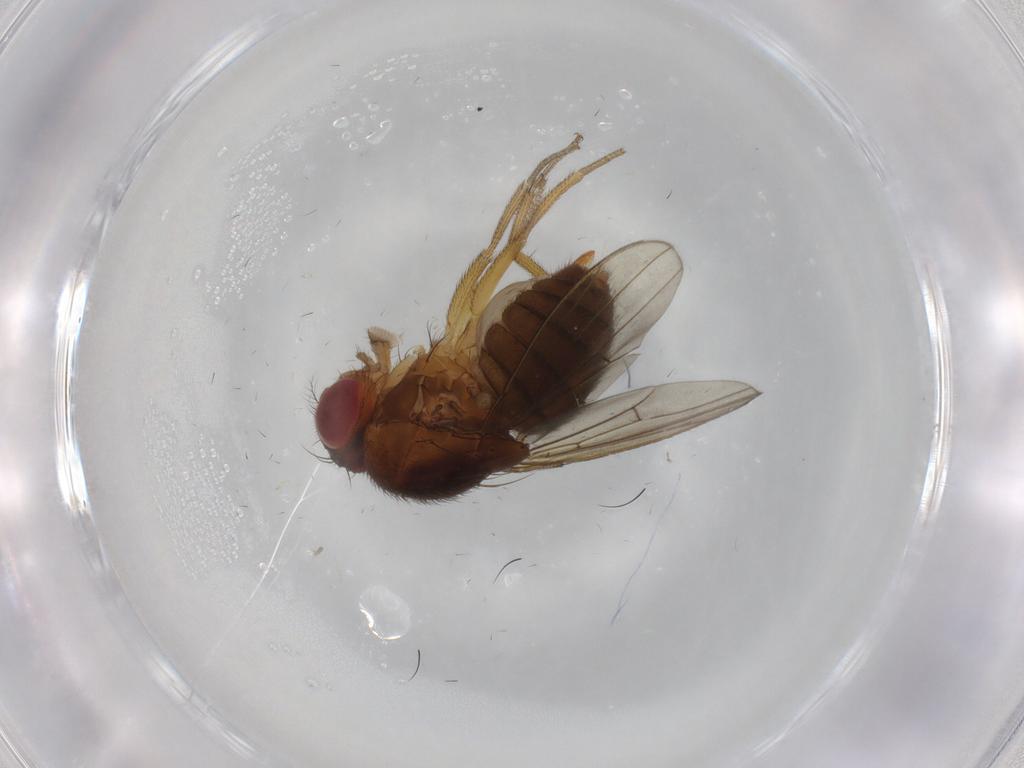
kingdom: Animalia
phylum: Arthropoda
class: Insecta
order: Diptera
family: Drosophilidae
